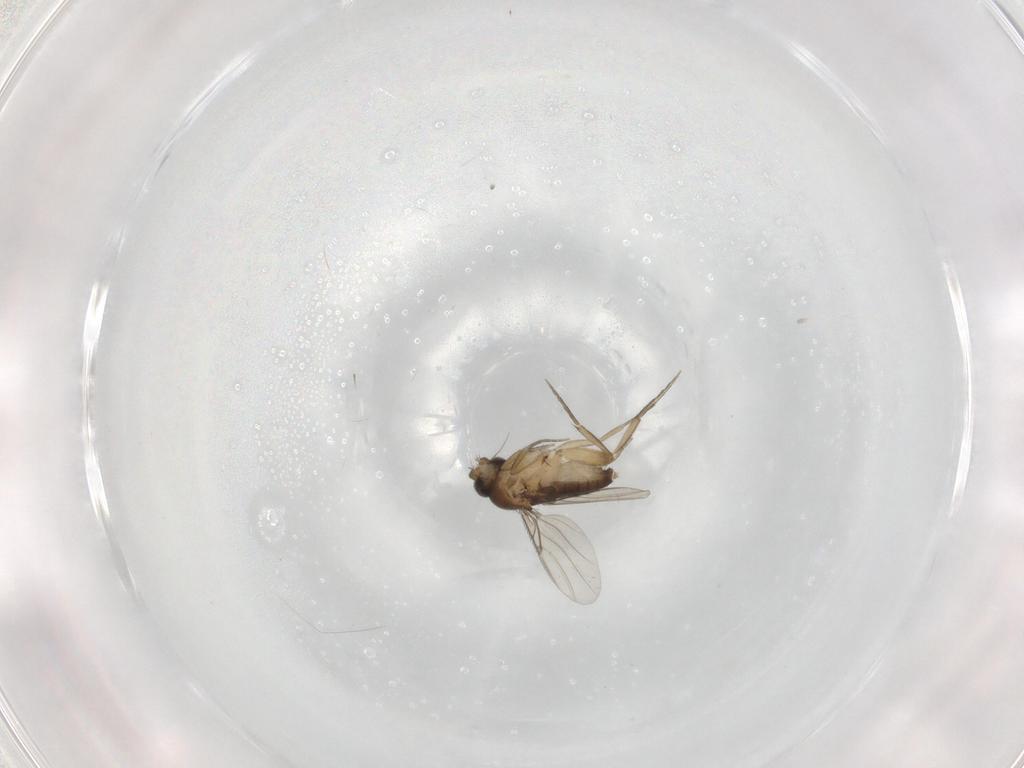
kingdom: Animalia
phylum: Arthropoda
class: Insecta
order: Diptera
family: Phoridae
